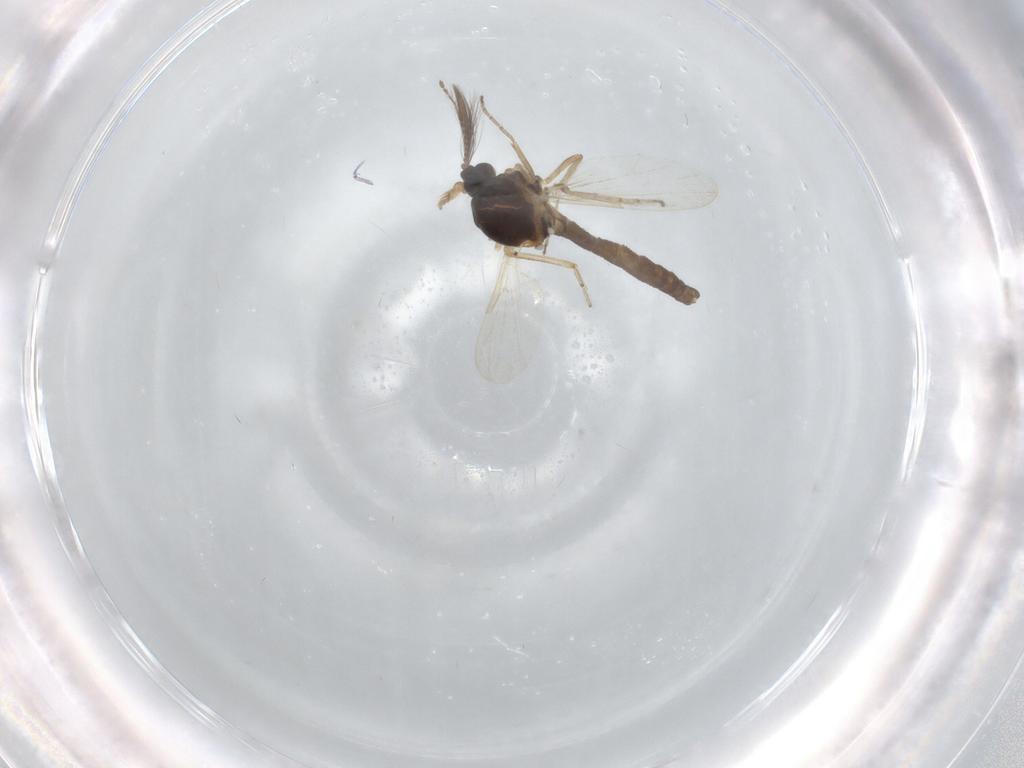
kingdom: Animalia
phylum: Arthropoda
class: Insecta
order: Diptera
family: Ceratopogonidae
